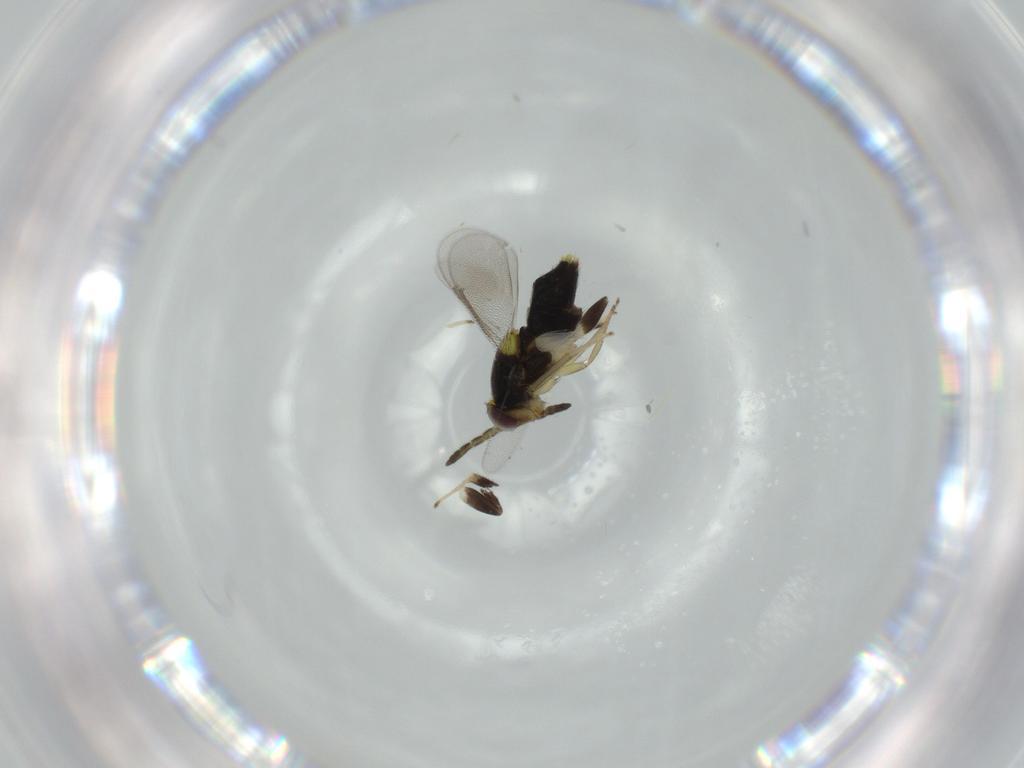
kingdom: Animalia
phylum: Arthropoda
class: Insecta
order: Hymenoptera
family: Aphelinidae
